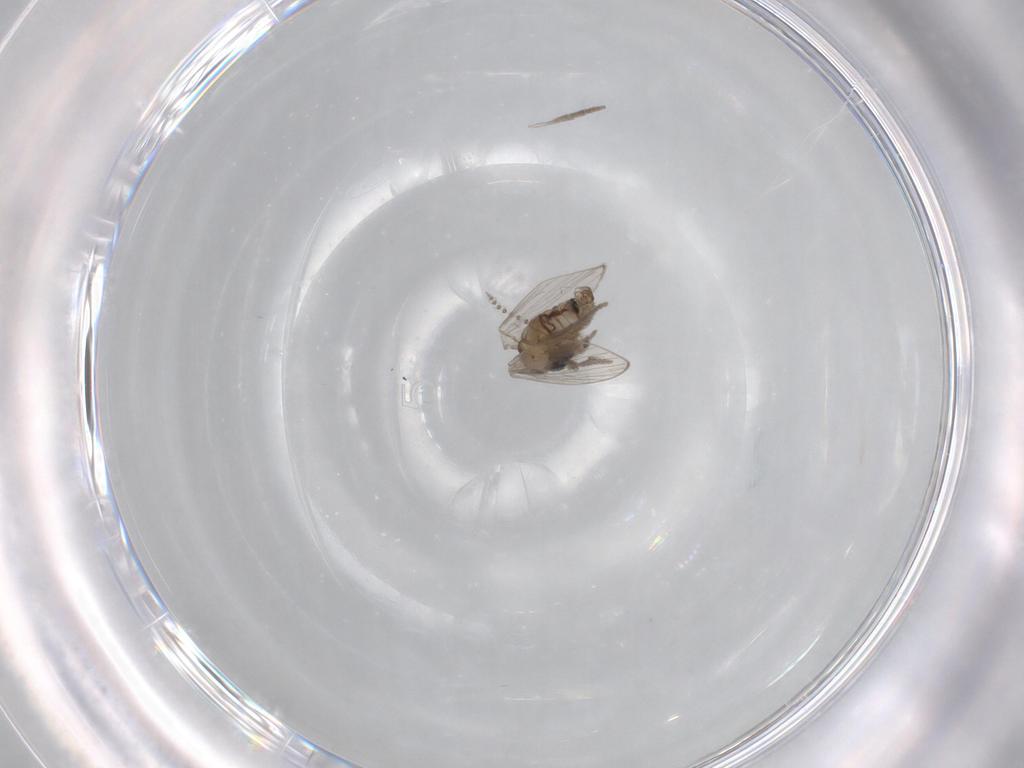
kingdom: Animalia
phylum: Arthropoda
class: Insecta
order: Diptera
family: Psychodidae
